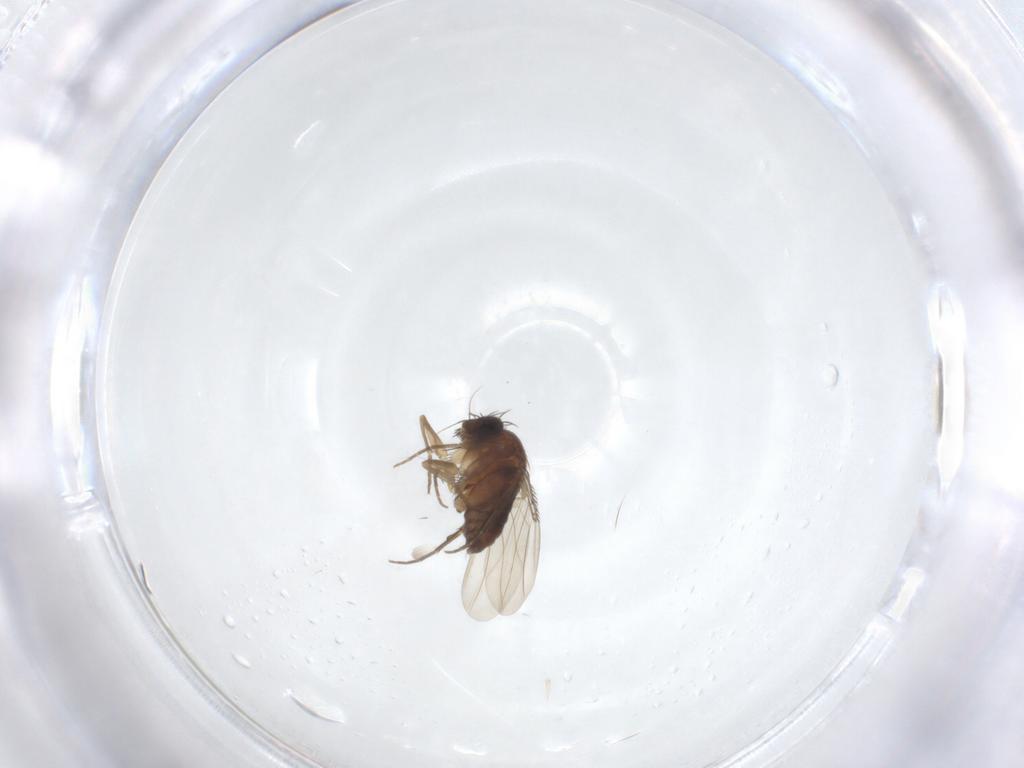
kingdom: Animalia
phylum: Arthropoda
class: Insecta
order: Diptera
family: Phoridae
